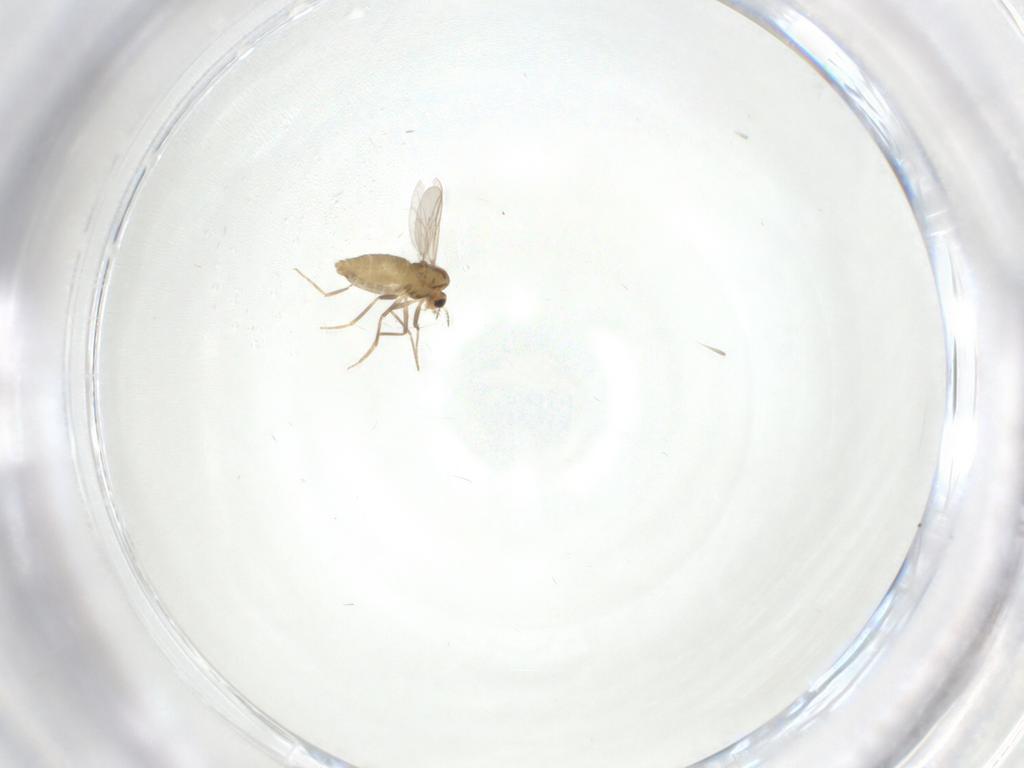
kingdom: Animalia
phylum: Arthropoda
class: Insecta
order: Diptera
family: Chironomidae
